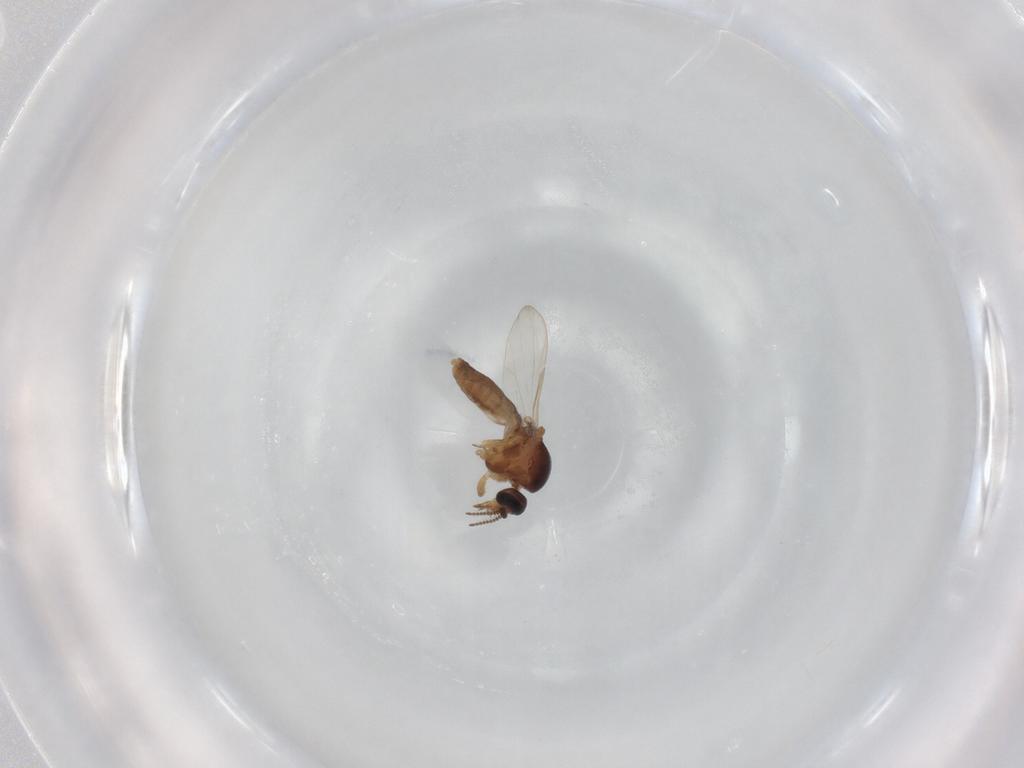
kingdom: Animalia
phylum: Arthropoda
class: Insecta
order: Diptera
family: Ceratopogonidae
